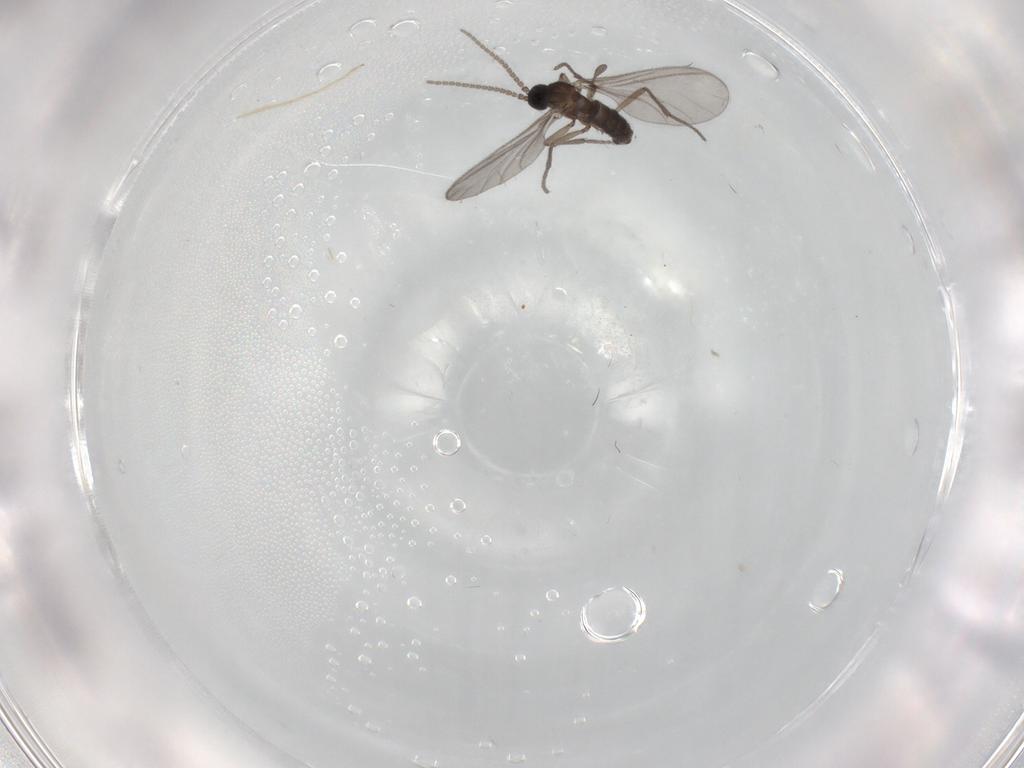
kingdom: Animalia
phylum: Arthropoda
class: Insecta
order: Diptera
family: Sciaridae
